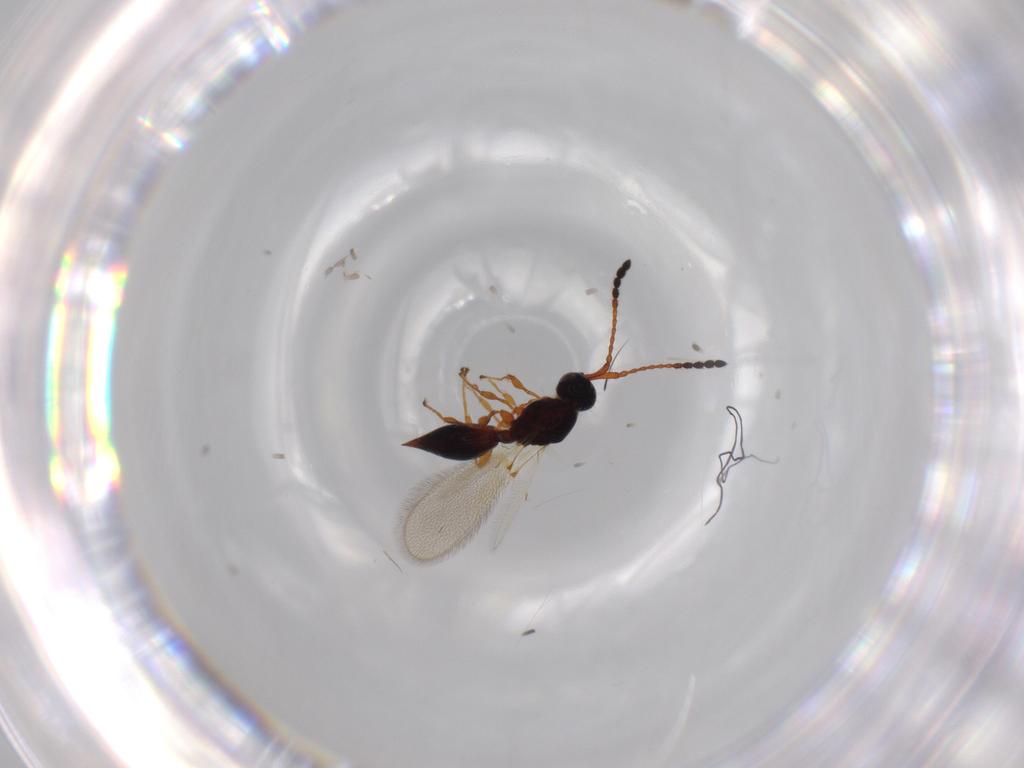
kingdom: Animalia
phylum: Arthropoda
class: Insecta
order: Hymenoptera
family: Diapriidae
